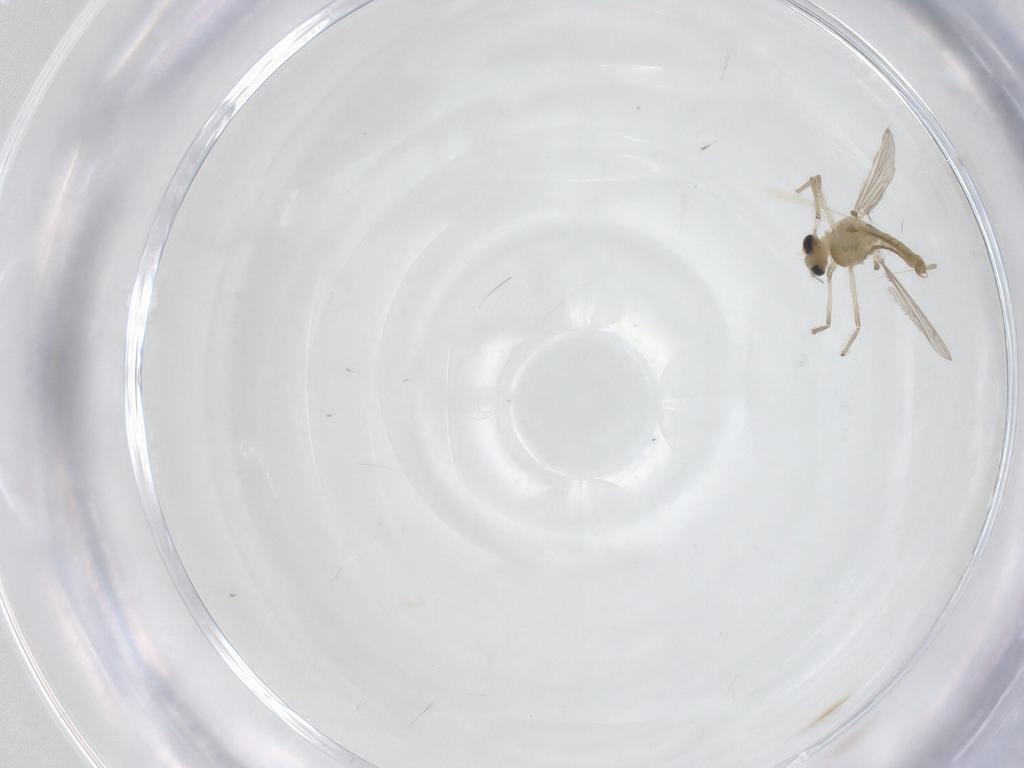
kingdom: Animalia
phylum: Arthropoda
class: Insecta
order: Diptera
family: Chironomidae
